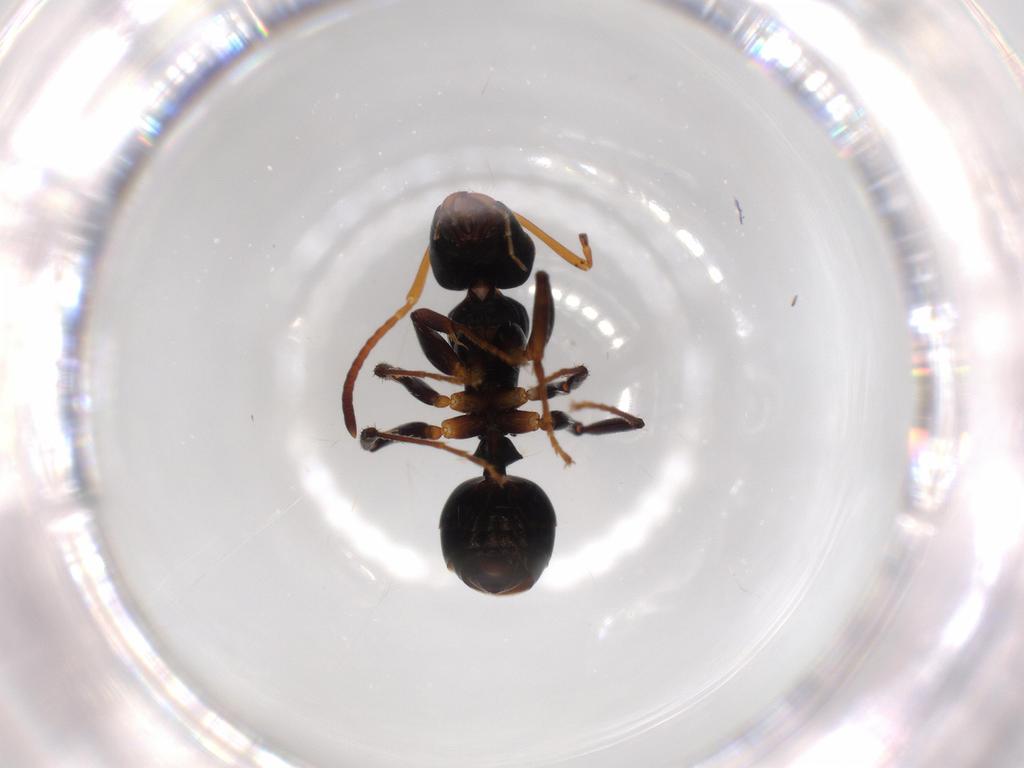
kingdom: Animalia
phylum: Arthropoda
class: Insecta
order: Hymenoptera
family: Formicidae
